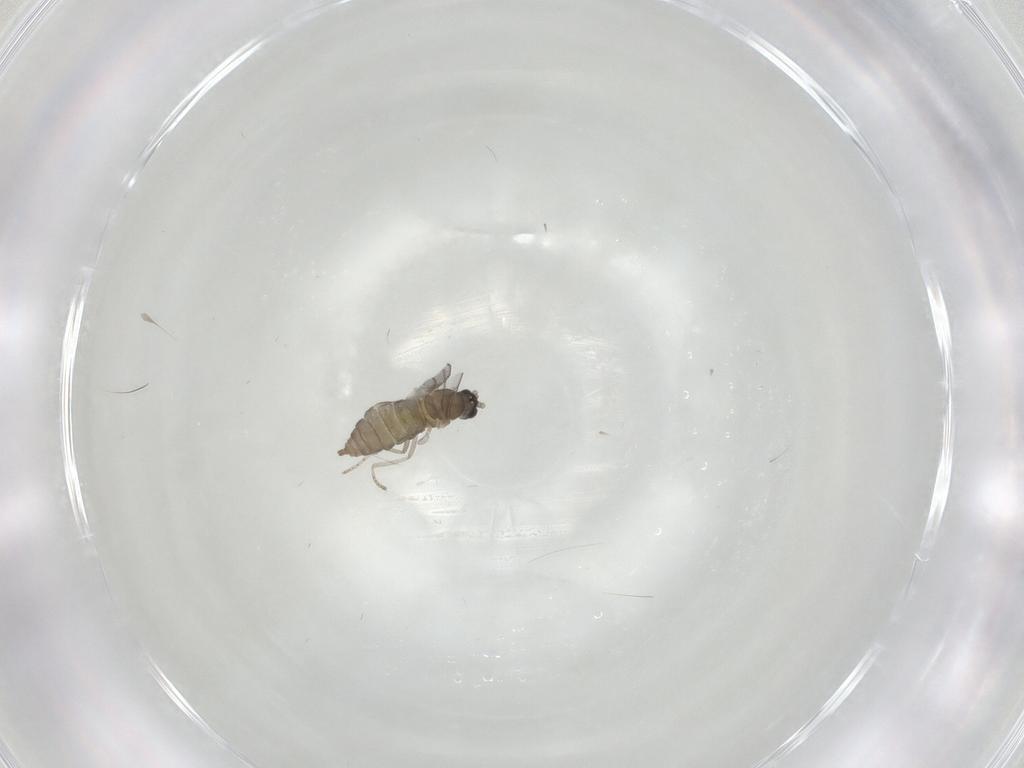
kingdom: Animalia
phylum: Arthropoda
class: Insecta
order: Diptera
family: Cecidomyiidae
